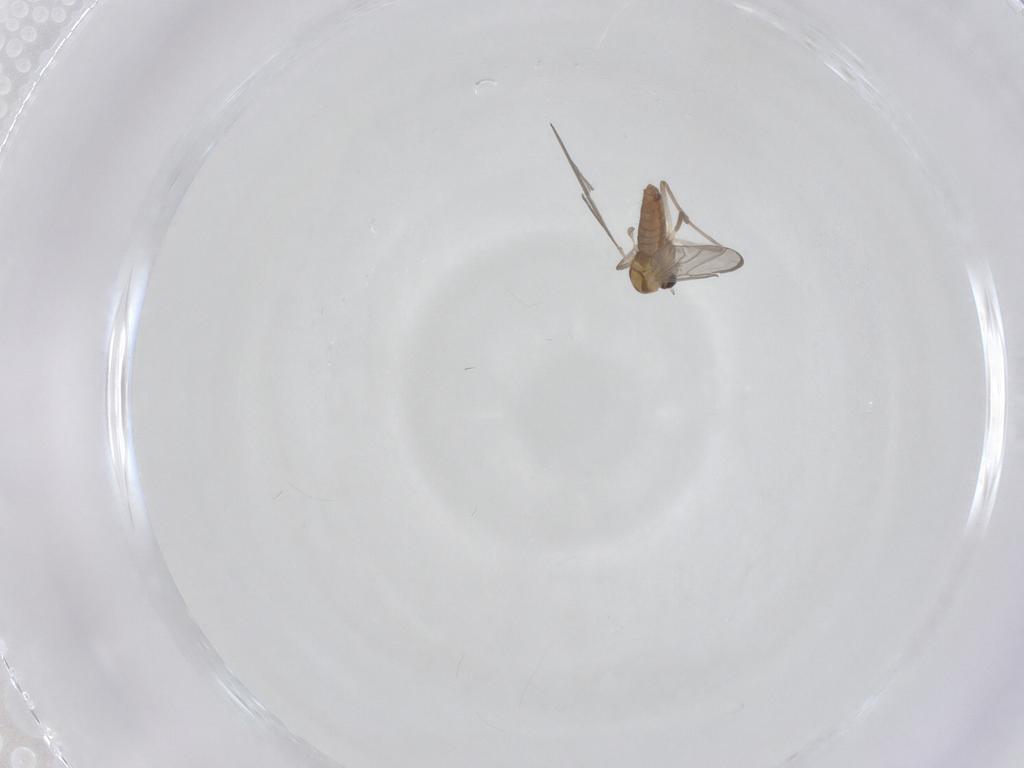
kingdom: Animalia
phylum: Arthropoda
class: Insecta
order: Diptera
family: Chironomidae
